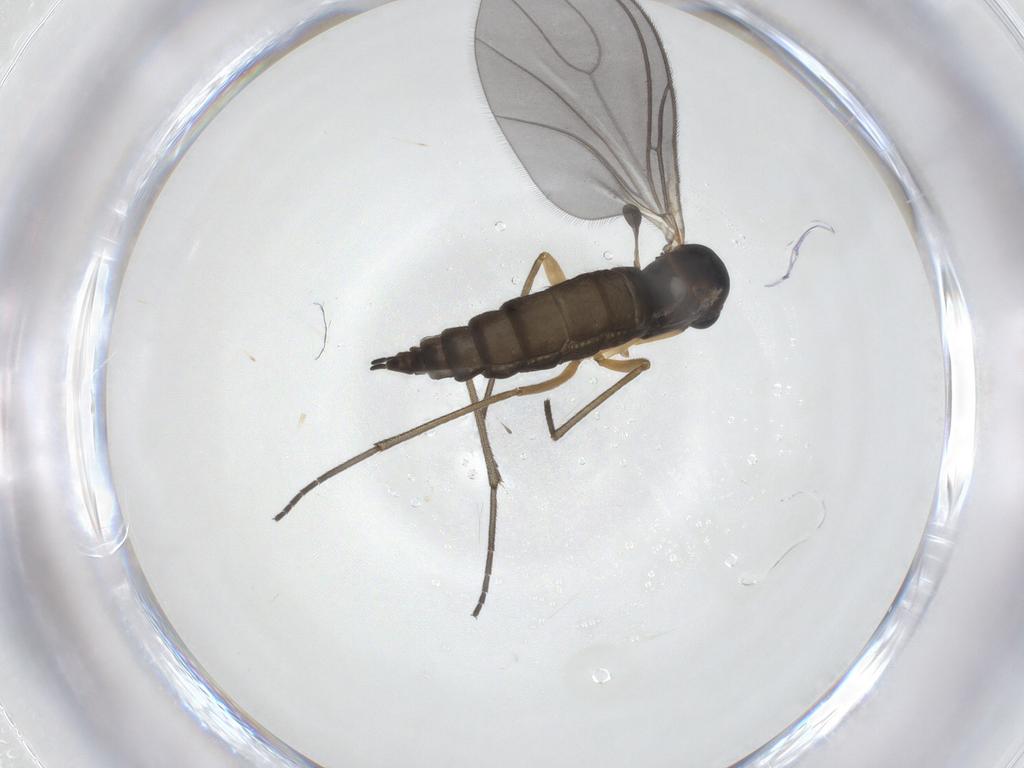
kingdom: Animalia
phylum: Arthropoda
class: Insecta
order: Diptera
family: Sciaridae
